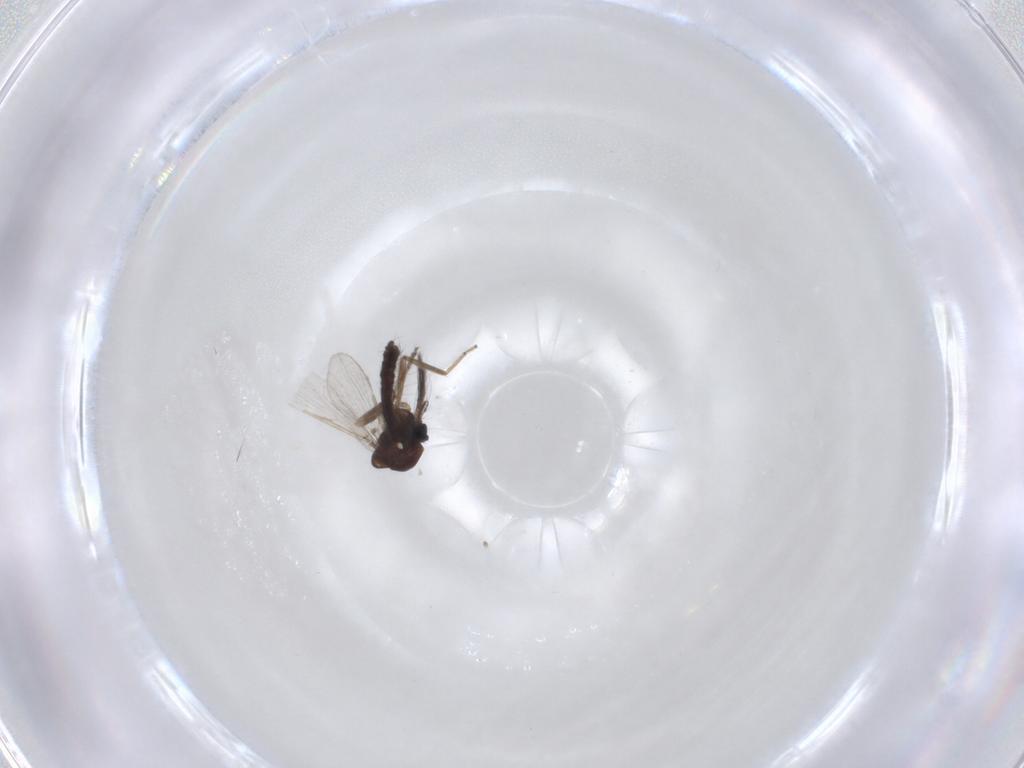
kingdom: Animalia
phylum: Arthropoda
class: Insecta
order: Diptera
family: Ceratopogonidae
